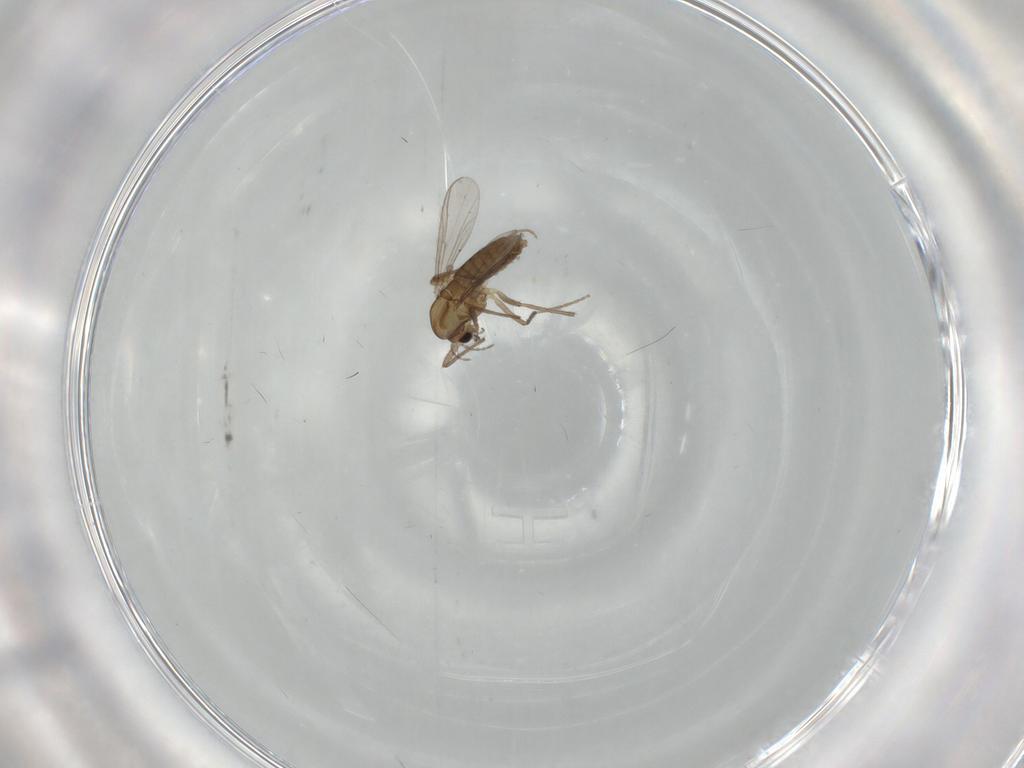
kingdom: Animalia
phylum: Arthropoda
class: Insecta
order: Diptera
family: Chironomidae
